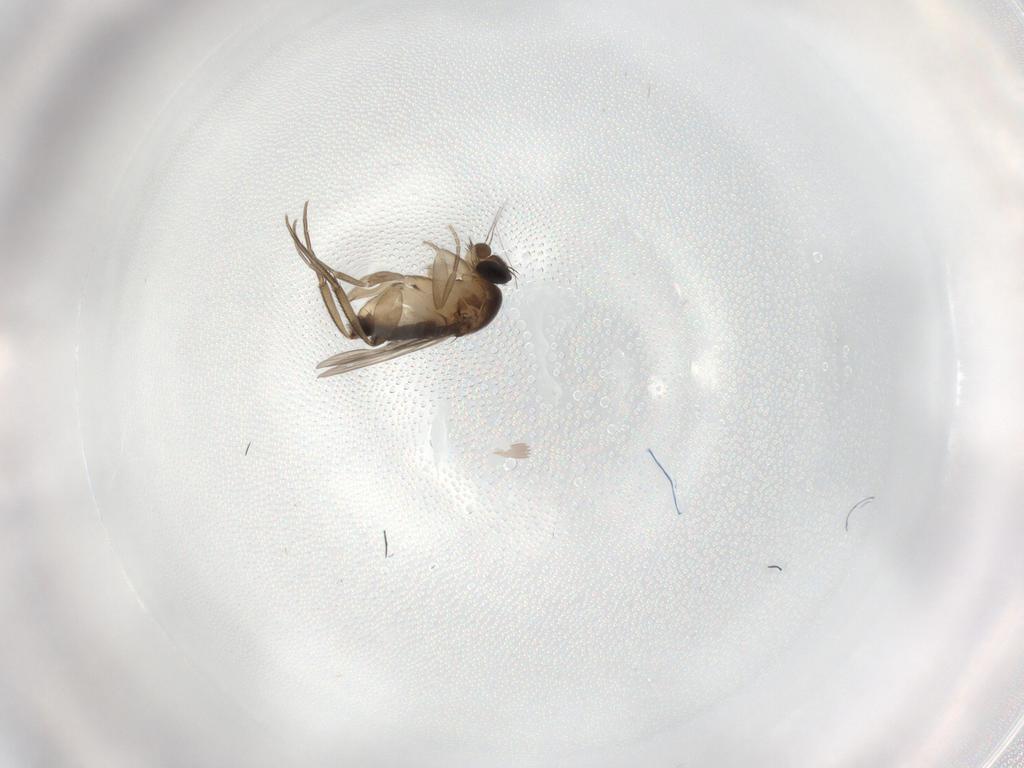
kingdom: Animalia
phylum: Arthropoda
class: Insecta
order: Diptera
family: Phoridae
